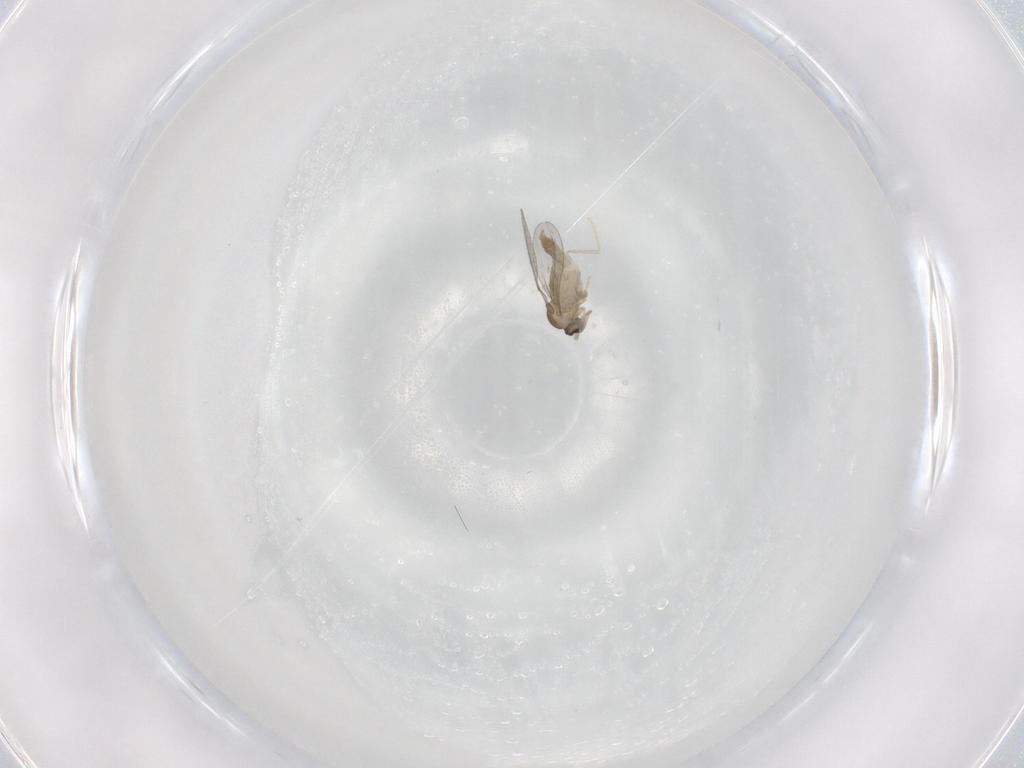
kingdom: Animalia
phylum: Arthropoda
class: Insecta
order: Diptera
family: Cecidomyiidae
